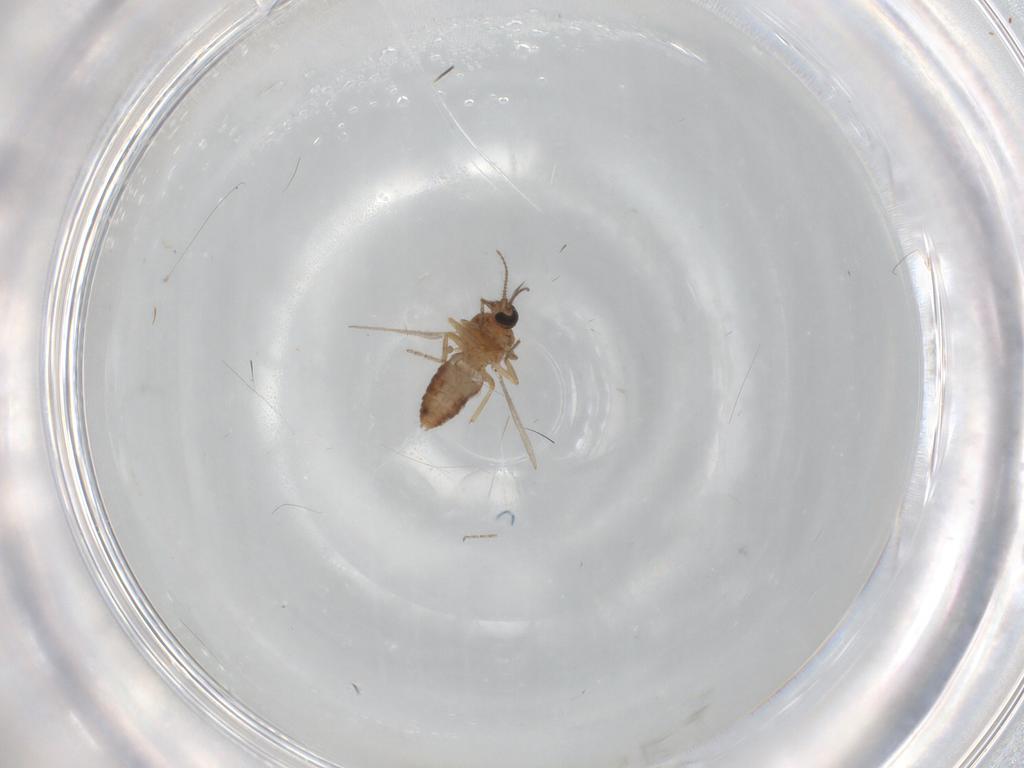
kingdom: Animalia
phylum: Arthropoda
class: Insecta
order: Diptera
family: Ceratopogonidae
